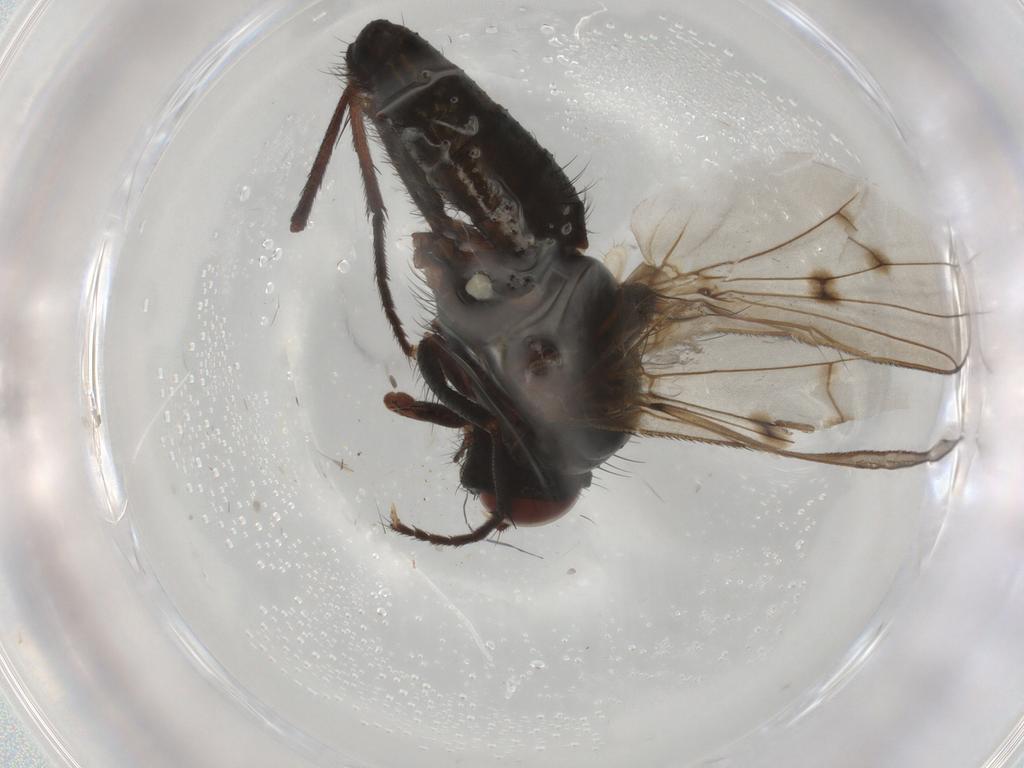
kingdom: Animalia
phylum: Arthropoda
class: Insecta
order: Diptera
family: Anthomyiidae
